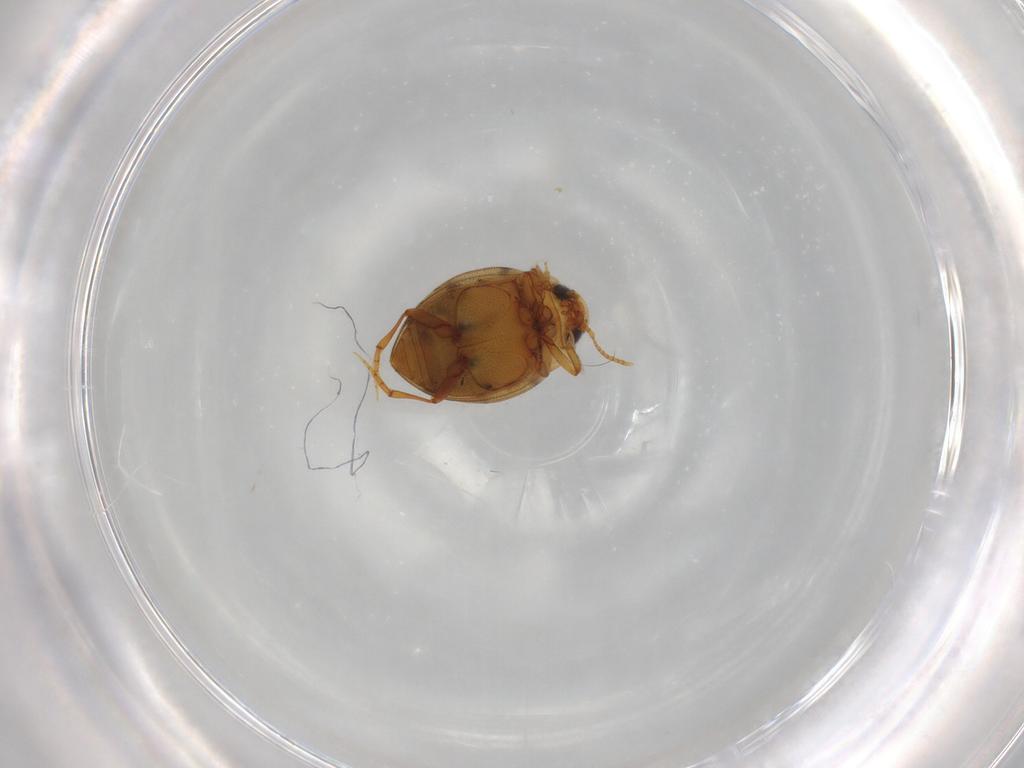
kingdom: Animalia
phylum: Arthropoda
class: Insecta
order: Coleoptera
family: Dytiscidae
